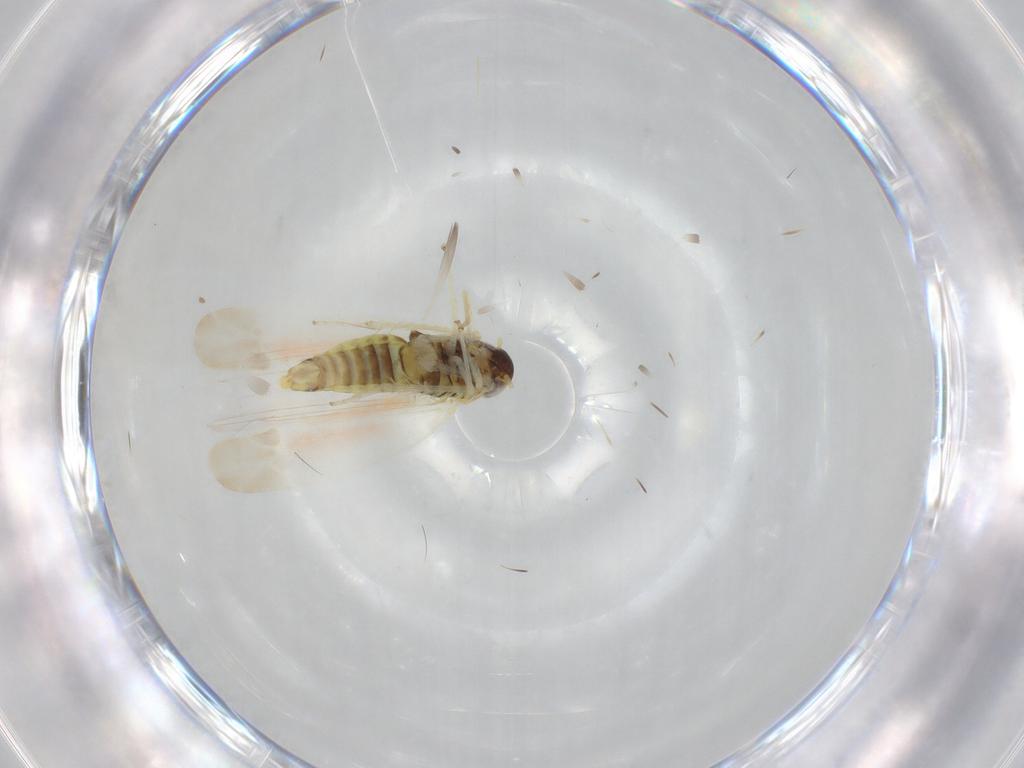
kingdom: Animalia
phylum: Arthropoda
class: Insecta
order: Hemiptera
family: Cicadellidae
